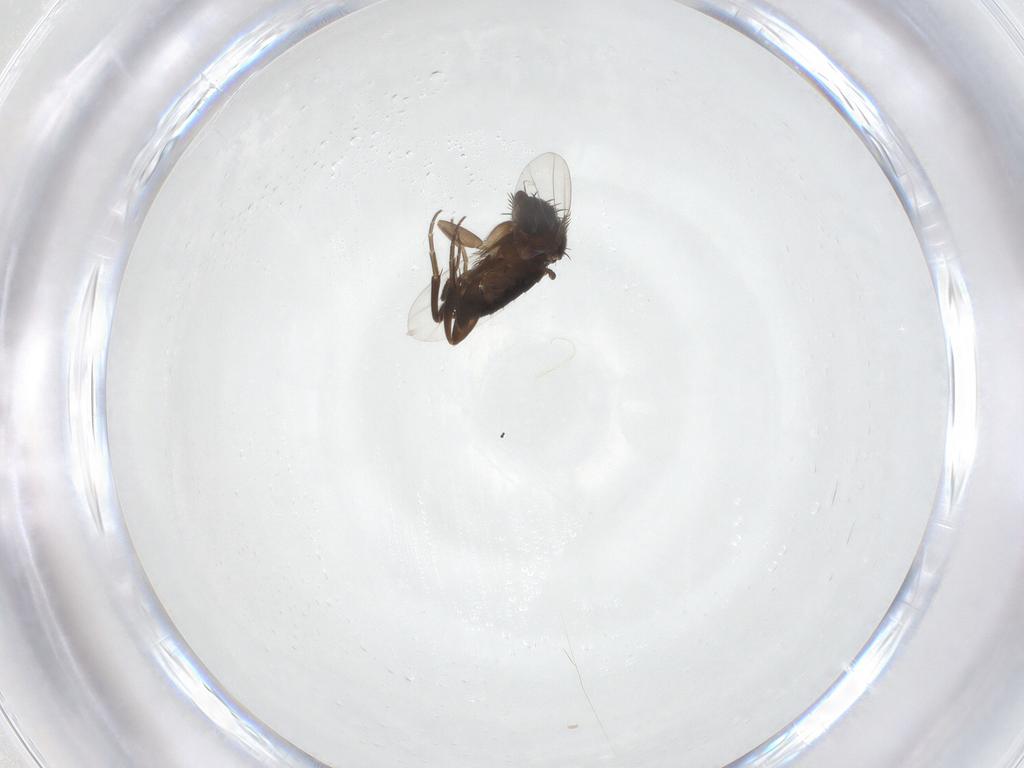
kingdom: Animalia
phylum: Arthropoda
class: Insecta
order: Diptera
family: Phoridae
